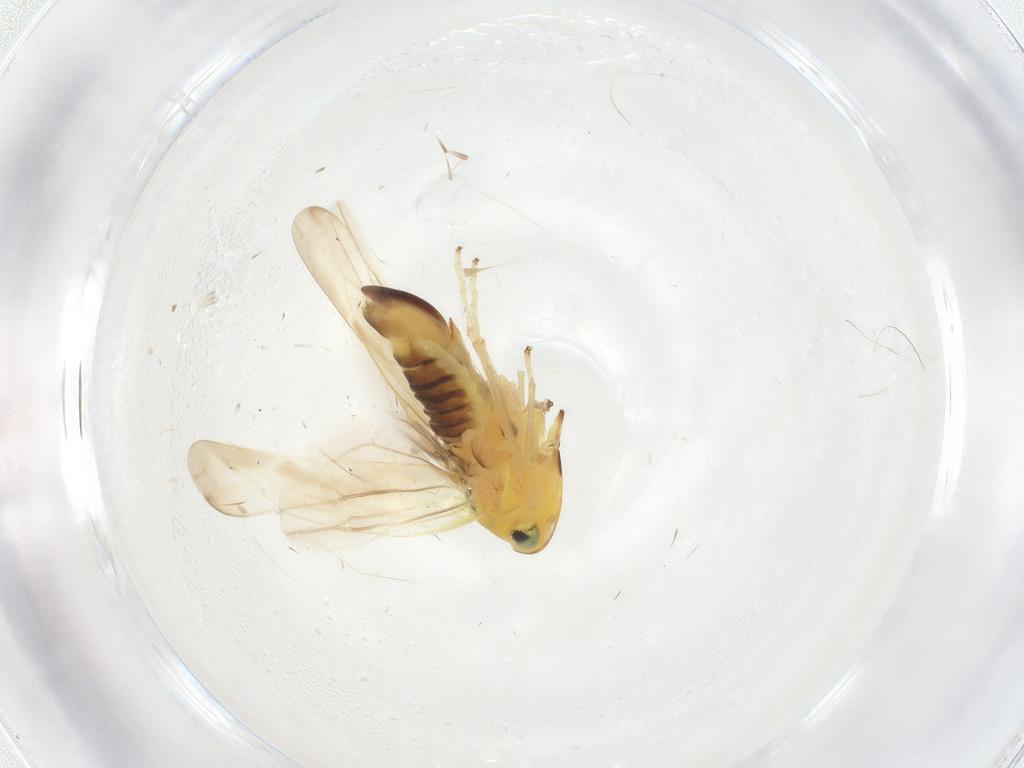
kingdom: Animalia
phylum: Arthropoda
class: Insecta
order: Hemiptera
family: Cicadellidae
